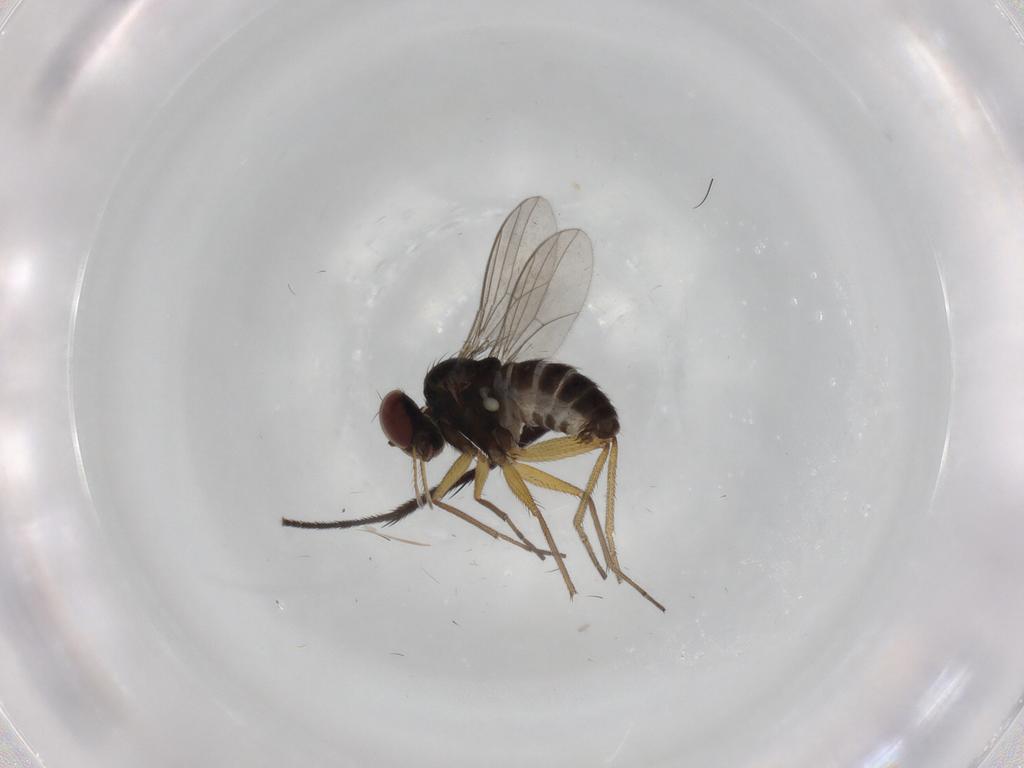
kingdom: Animalia
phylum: Arthropoda
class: Insecta
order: Diptera
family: Dolichopodidae
